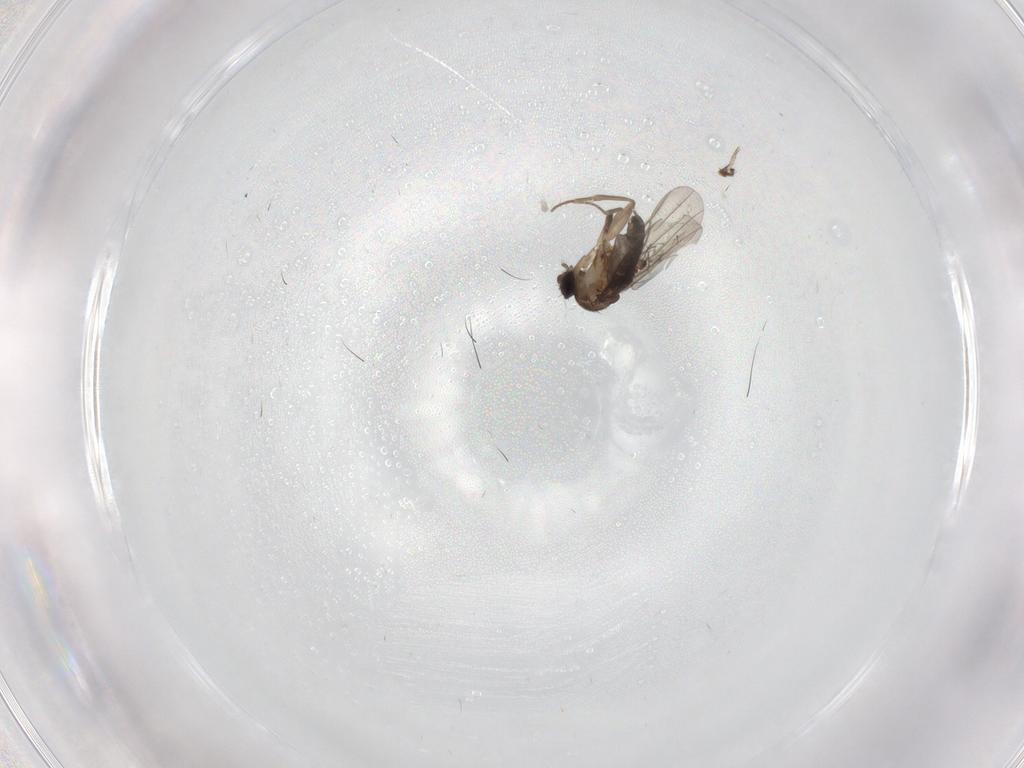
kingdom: Animalia
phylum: Arthropoda
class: Insecta
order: Diptera
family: Phoridae
